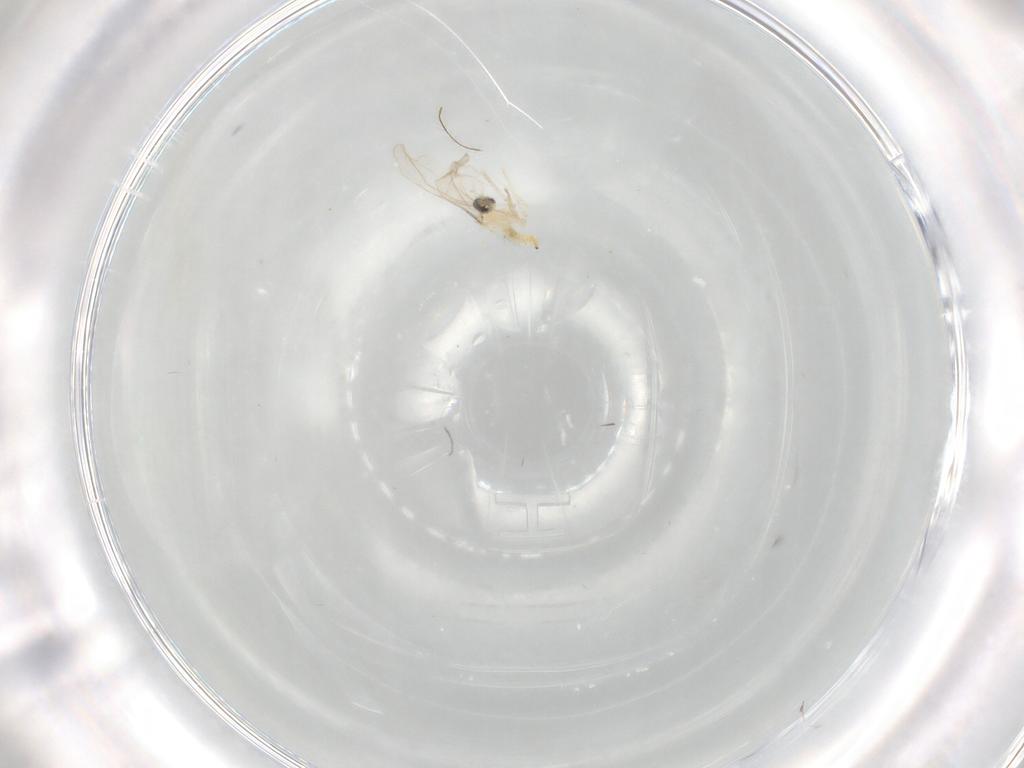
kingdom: Animalia
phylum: Arthropoda
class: Insecta
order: Diptera
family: Cecidomyiidae
